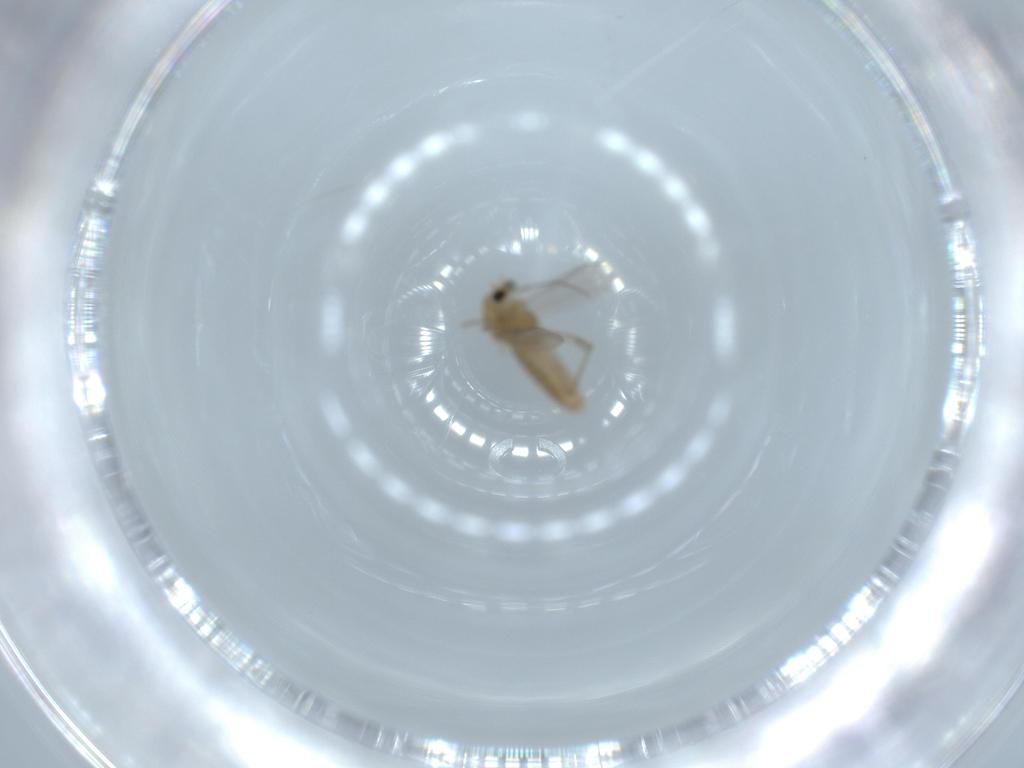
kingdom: Animalia
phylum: Arthropoda
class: Insecta
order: Diptera
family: Chironomidae
